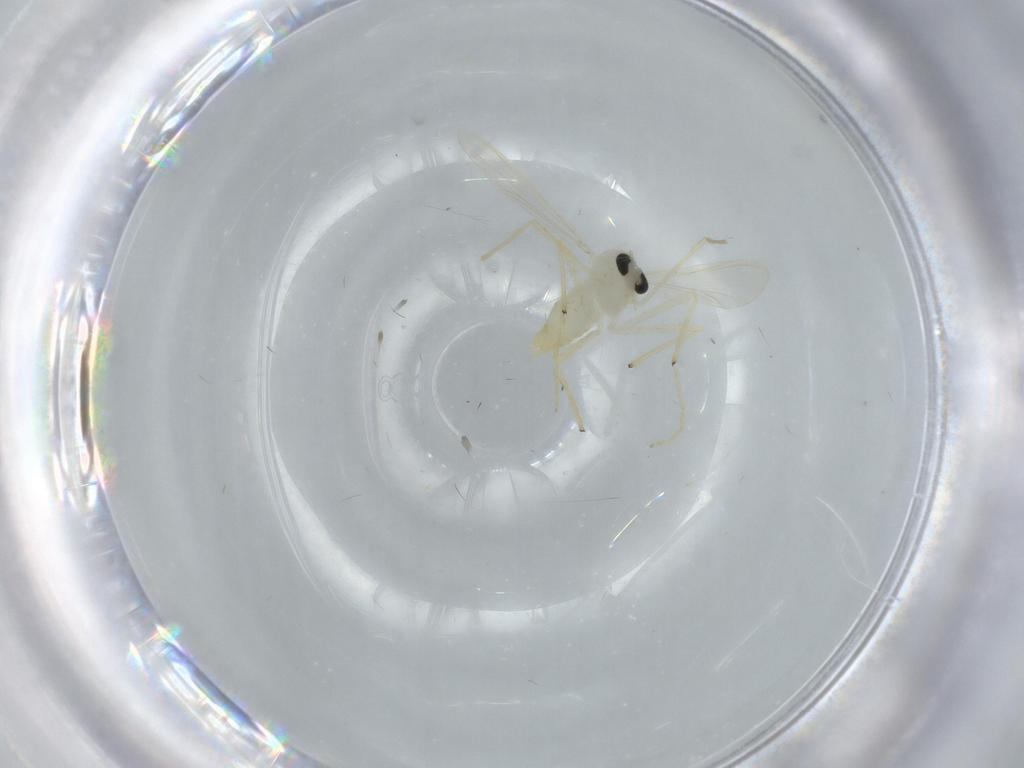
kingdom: Animalia
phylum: Arthropoda
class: Insecta
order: Diptera
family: Chironomidae
